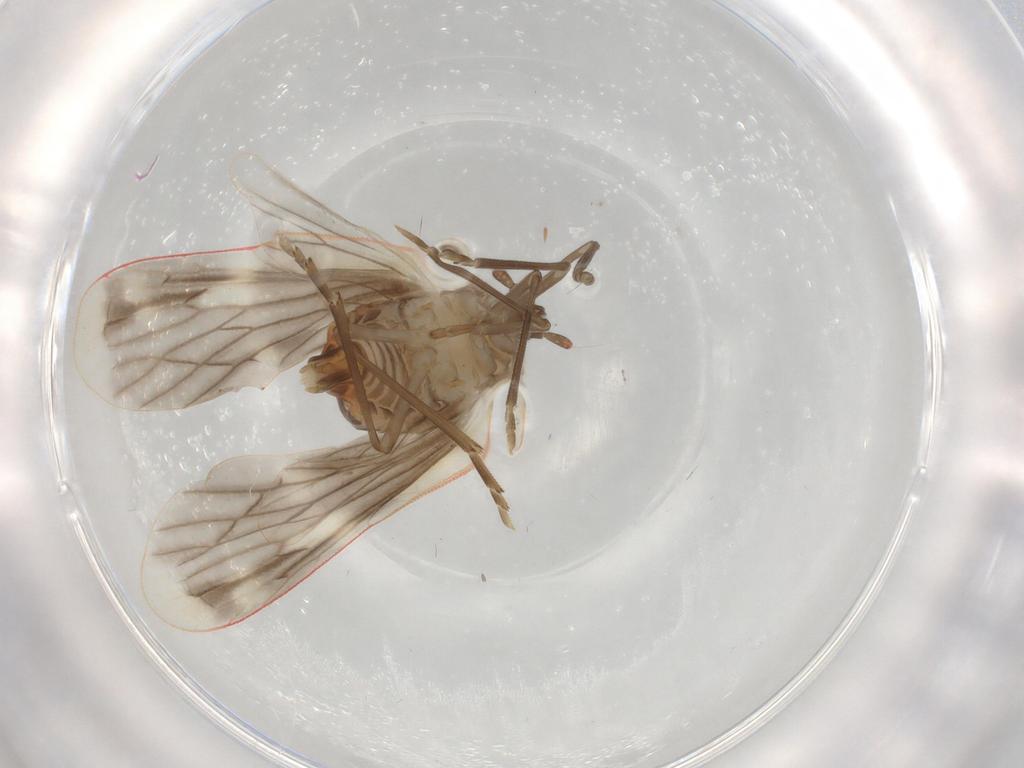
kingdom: Animalia
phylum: Arthropoda
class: Insecta
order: Hemiptera
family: Derbidae
